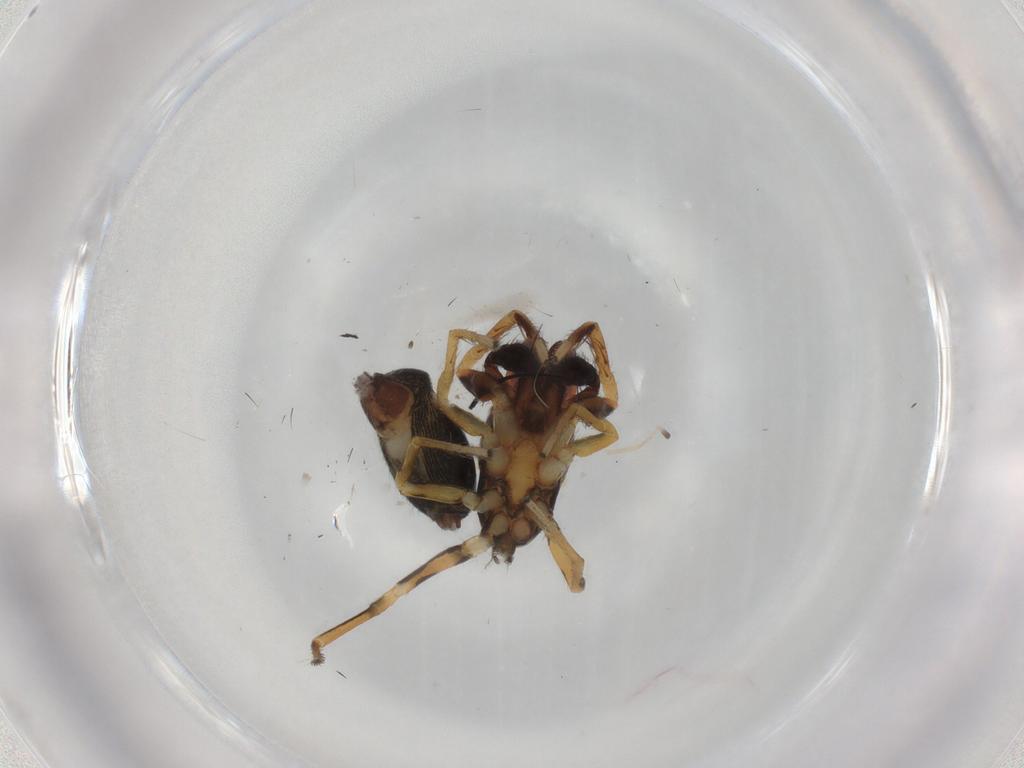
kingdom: Animalia
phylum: Arthropoda
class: Arachnida
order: Araneae
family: Salticidae
